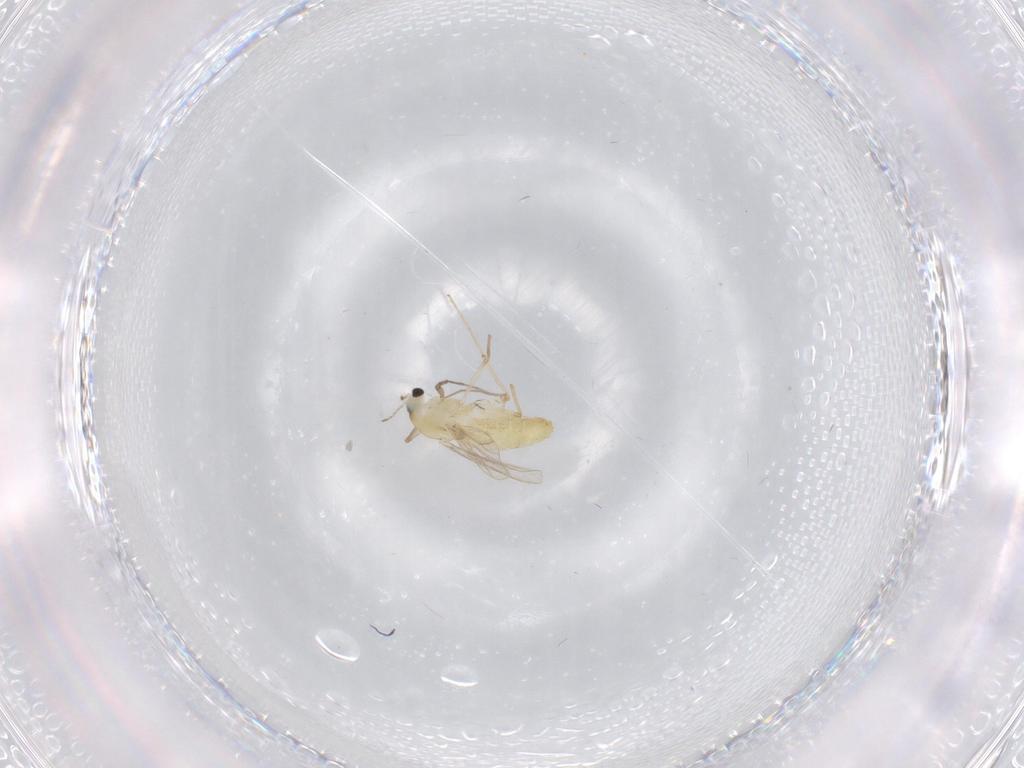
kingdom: Animalia
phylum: Arthropoda
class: Insecta
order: Diptera
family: Chironomidae
